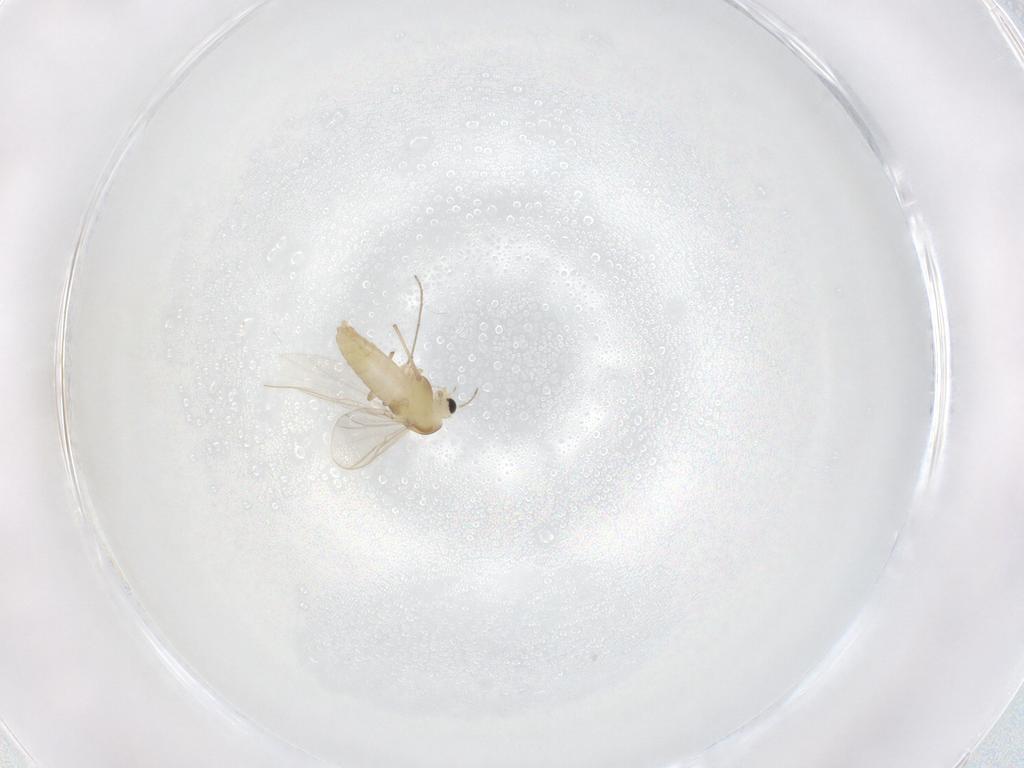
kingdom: Animalia
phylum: Arthropoda
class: Insecta
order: Diptera
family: Chironomidae
